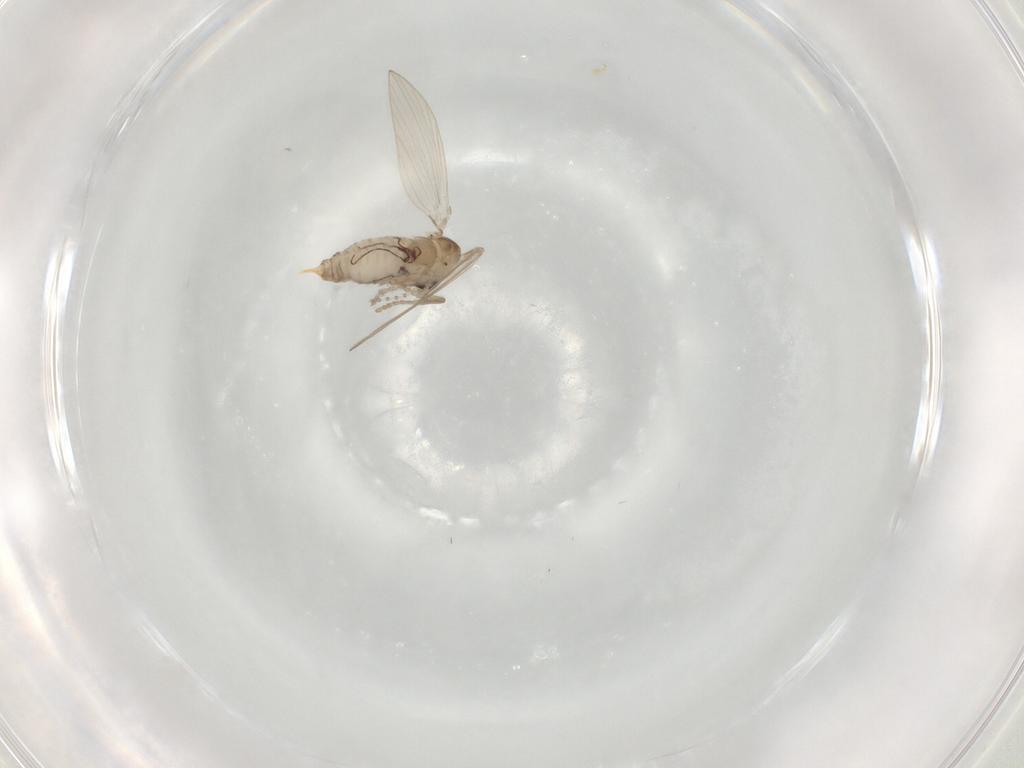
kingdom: Animalia
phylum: Arthropoda
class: Insecta
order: Diptera
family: Psychodidae
